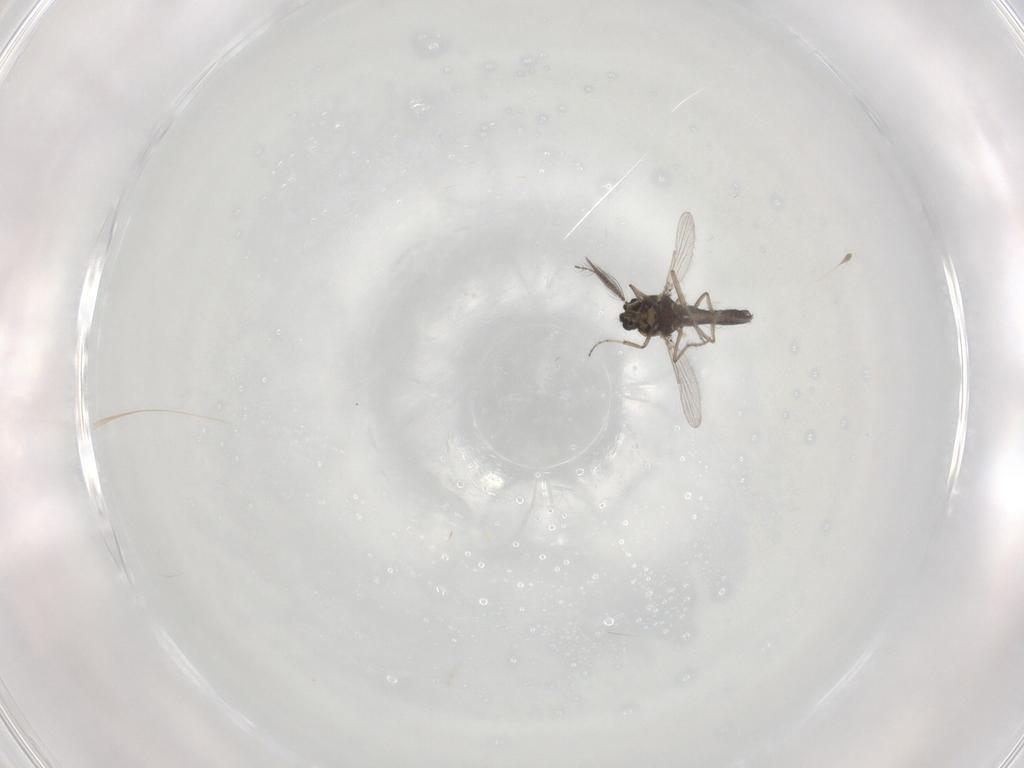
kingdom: Animalia
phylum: Arthropoda
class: Insecta
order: Diptera
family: Ceratopogonidae
